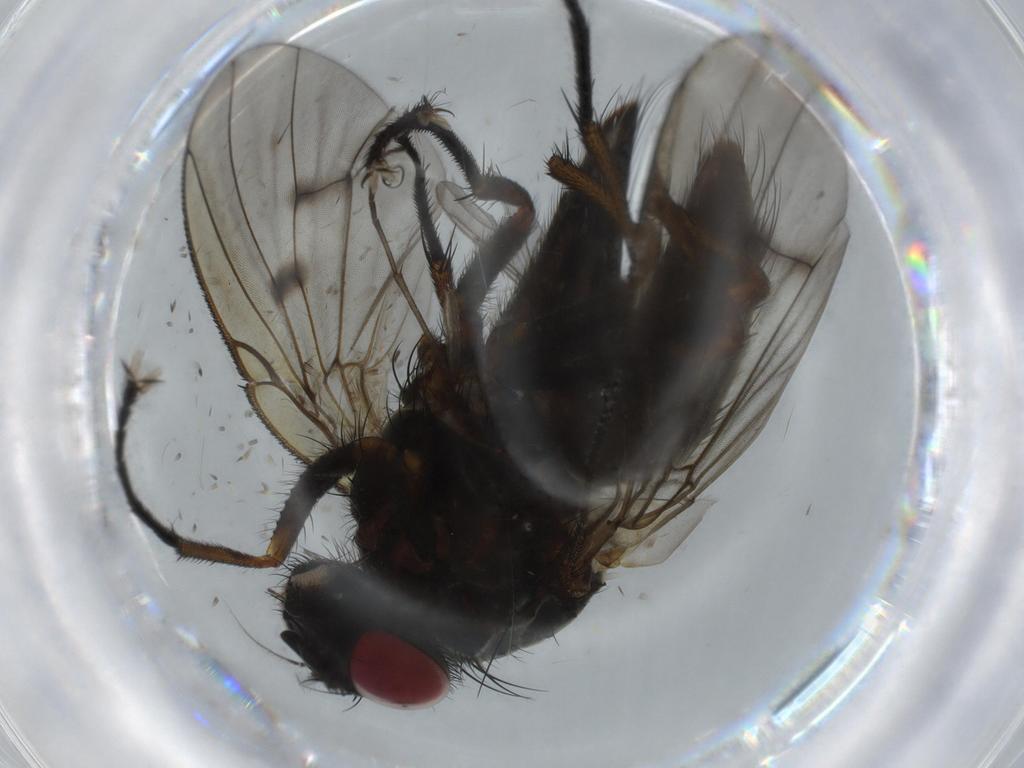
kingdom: Animalia
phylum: Arthropoda
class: Insecta
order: Diptera
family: Muscidae
